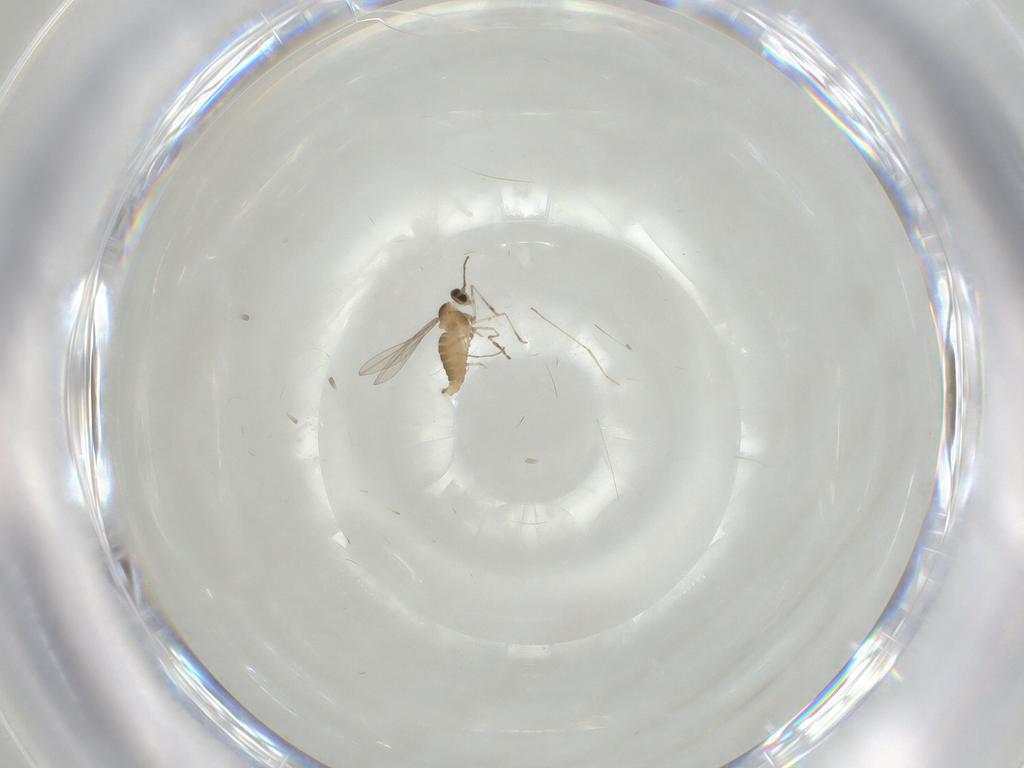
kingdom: Animalia
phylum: Arthropoda
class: Insecta
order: Diptera
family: Cecidomyiidae
